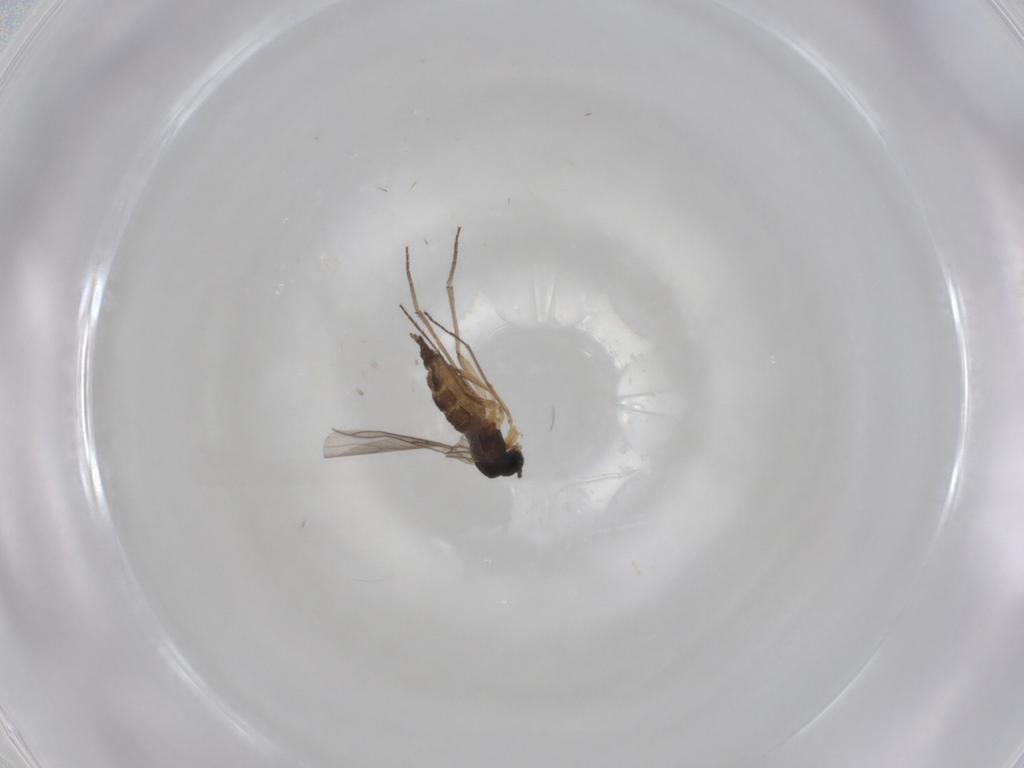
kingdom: Animalia
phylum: Arthropoda
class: Insecta
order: Diptera
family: Sciaridae
